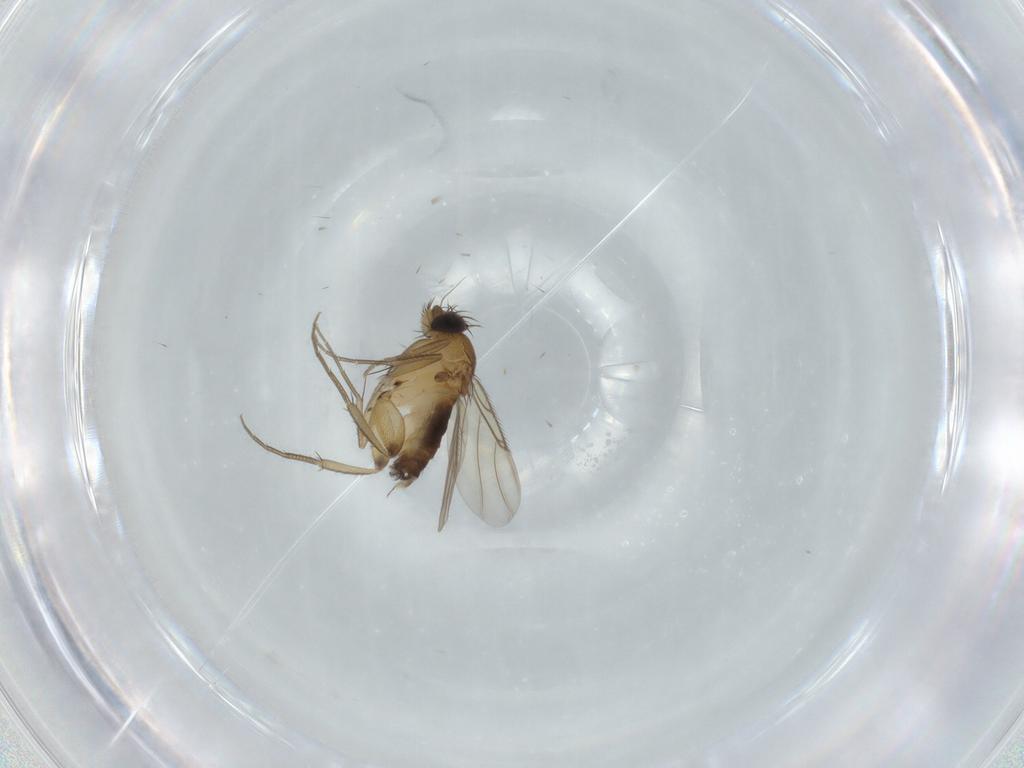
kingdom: Animalia
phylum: Arthropoda
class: Insecta
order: Diptera
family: Phoridae
